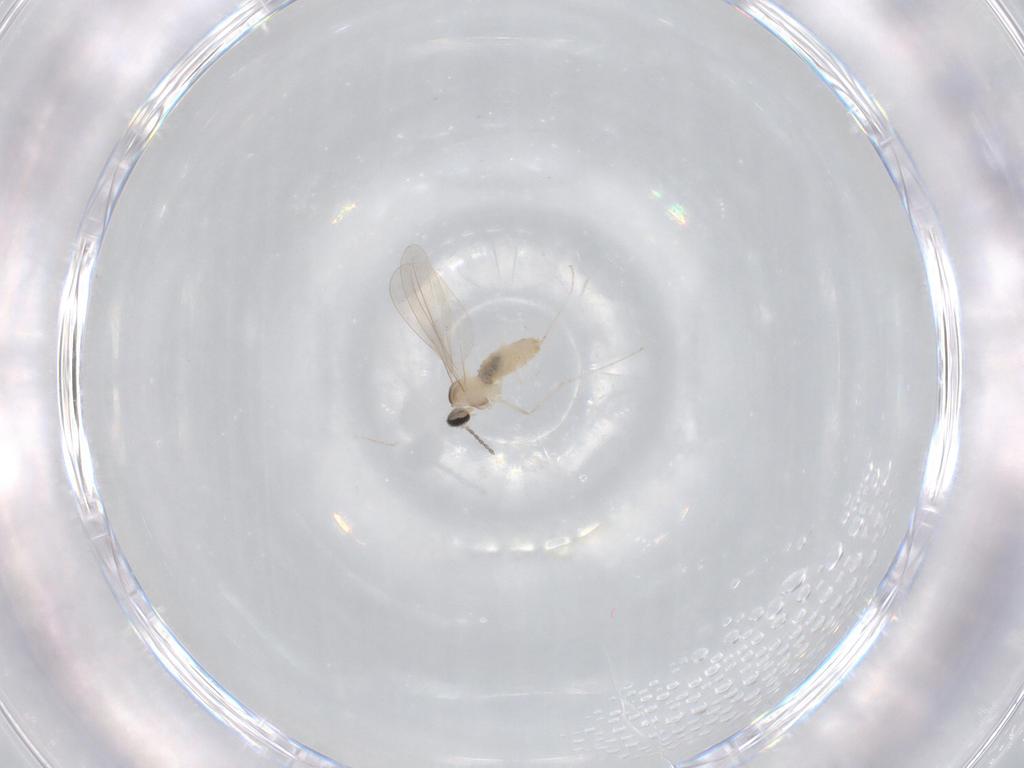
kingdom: Animalia
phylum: Arthropoda
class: Insecta
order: Diptera
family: Cecidomyiidae
